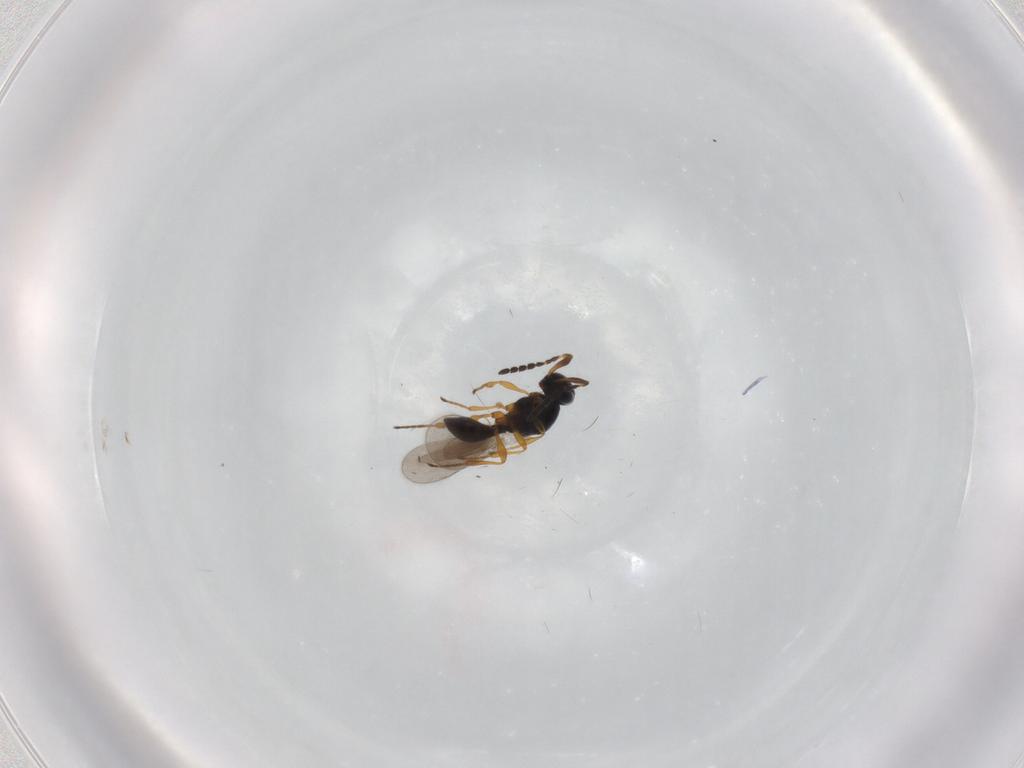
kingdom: Animalia
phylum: Arthropoda
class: Insecta
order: Hymenoptera
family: Platygastridae
